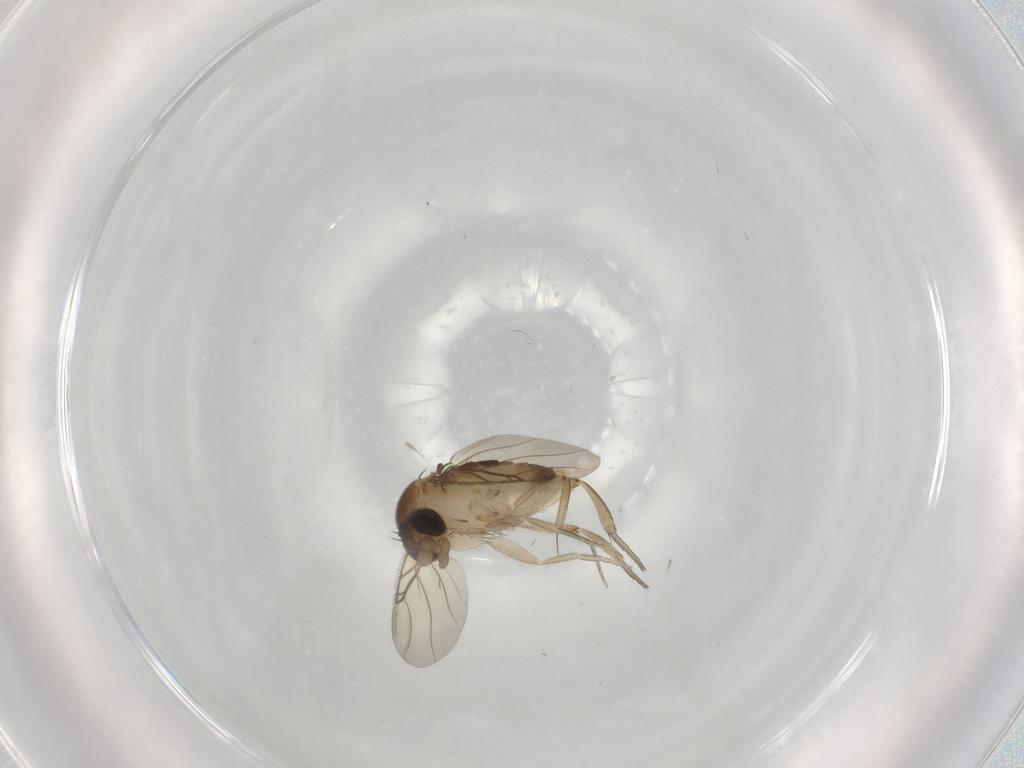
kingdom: Animalia
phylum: Arthropoda
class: Insecta
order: Diptera
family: Phoridae
